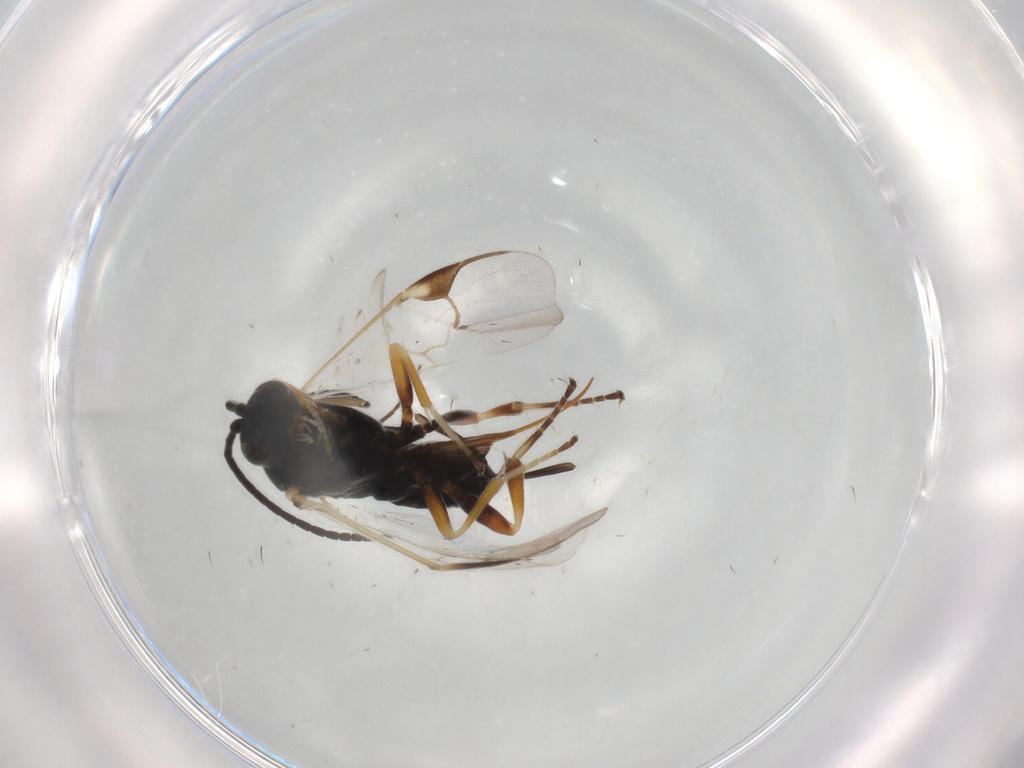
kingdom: Animalia
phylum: Arthropoda
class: Insecta
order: Hymenoptera
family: Braconidae
